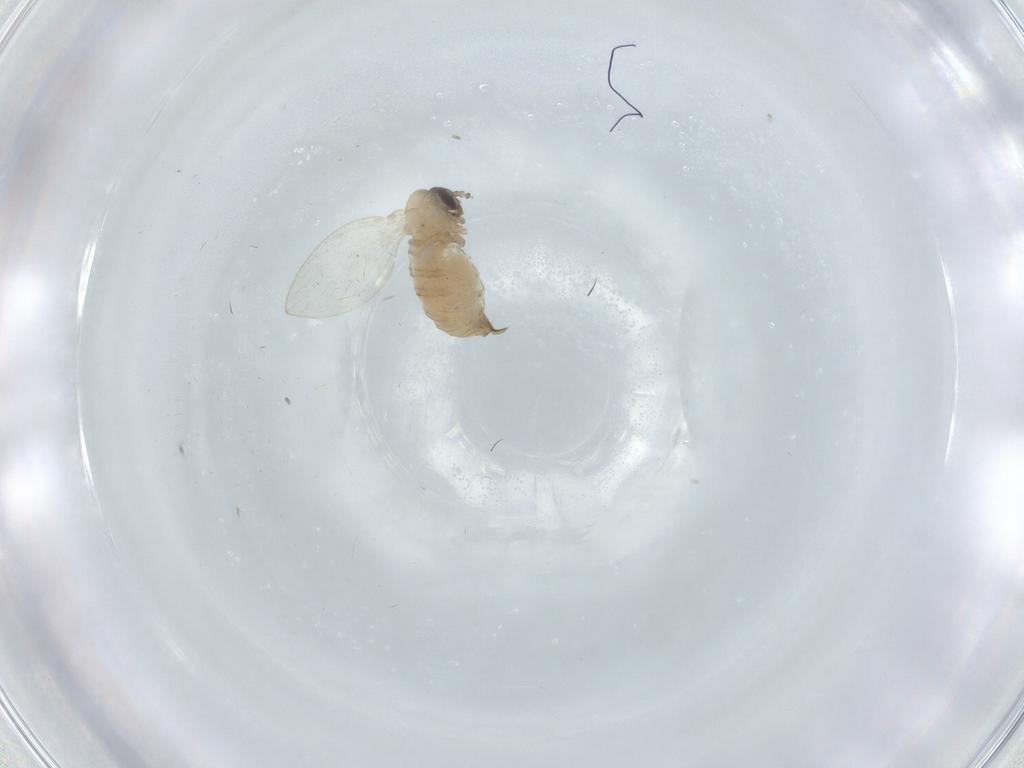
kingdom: Animalia
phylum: Arthropoda
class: Insecta
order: Diptera
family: Psychodidae
